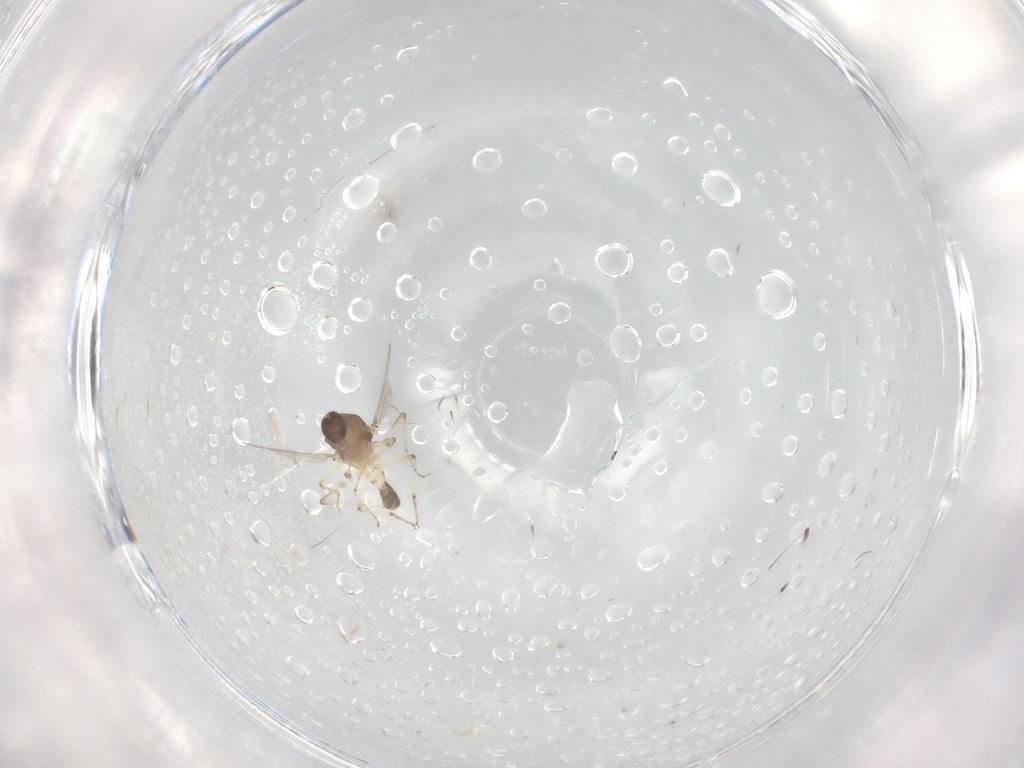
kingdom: Animalia
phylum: Arthropoda
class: Insecta
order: Diptera
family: Ceratopogonidae
